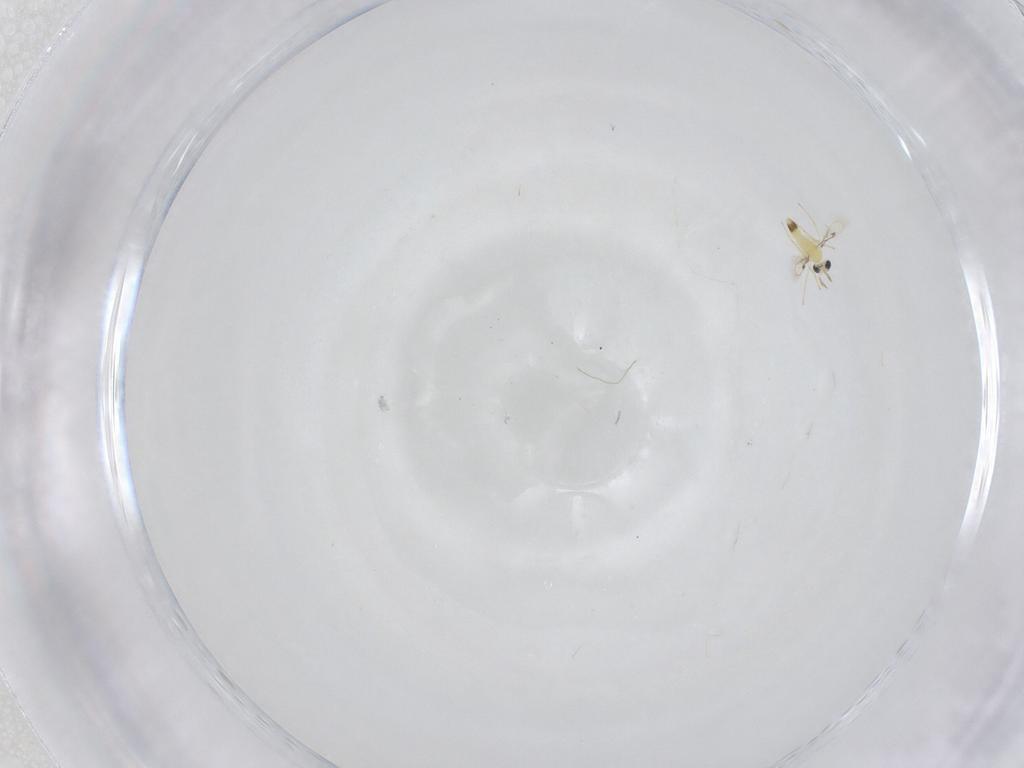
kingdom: Animalia
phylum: Arthropoda
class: Insecta
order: Hymenoptera
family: Trichogrammatidae
